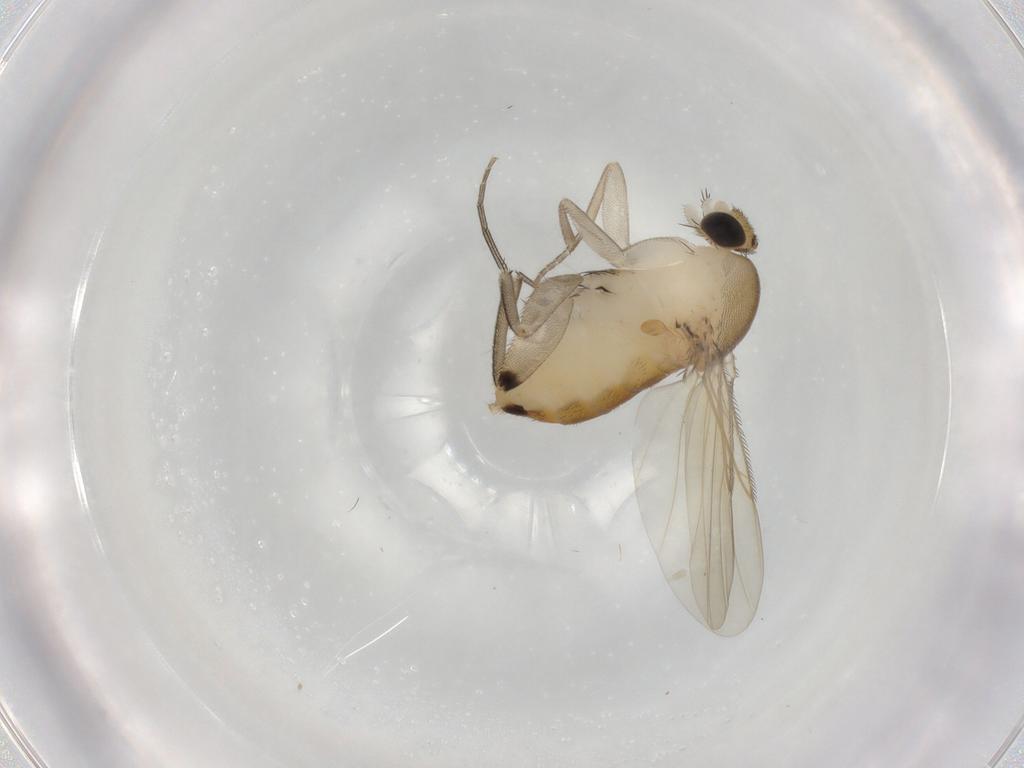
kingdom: Animalia
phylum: Arthropoda
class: Insecta
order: Diptera
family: Phoridae
